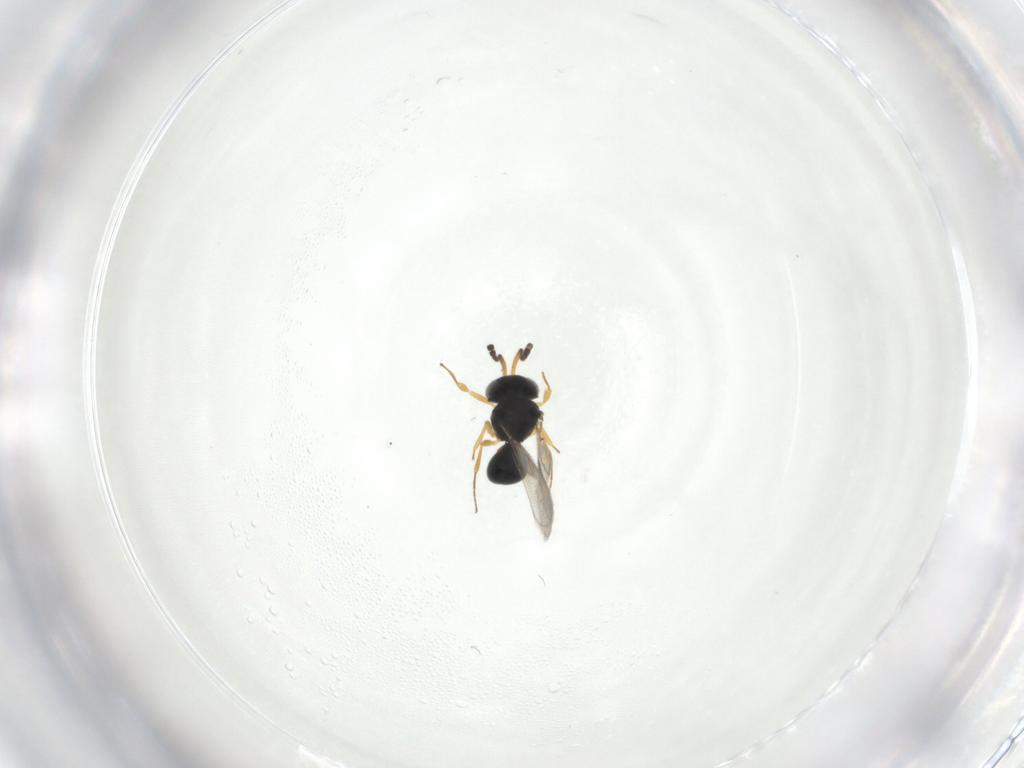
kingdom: Animalia
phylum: Arthropoda
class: Insecta
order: Hymenoptera
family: Scelionidae
